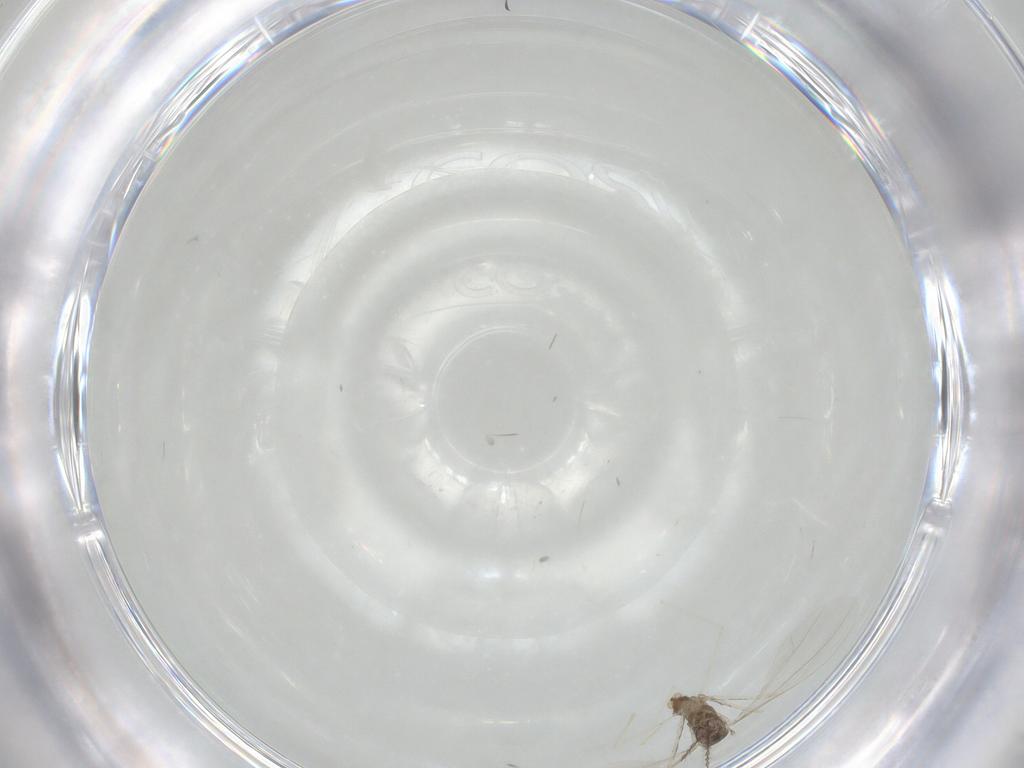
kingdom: Animalia
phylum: Arthropoda
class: Insecta
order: Diptera
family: Cecidomyiidae
